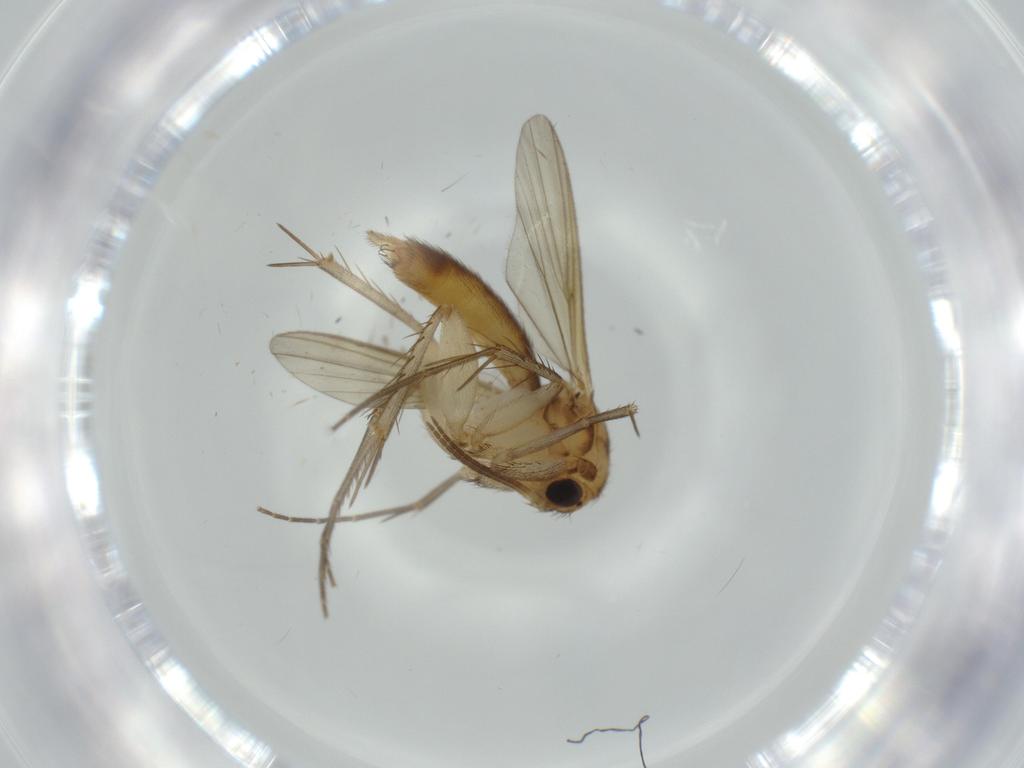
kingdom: Animalia
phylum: Arthropoda
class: Insecta
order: Diptera
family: Cecidomyiidae
